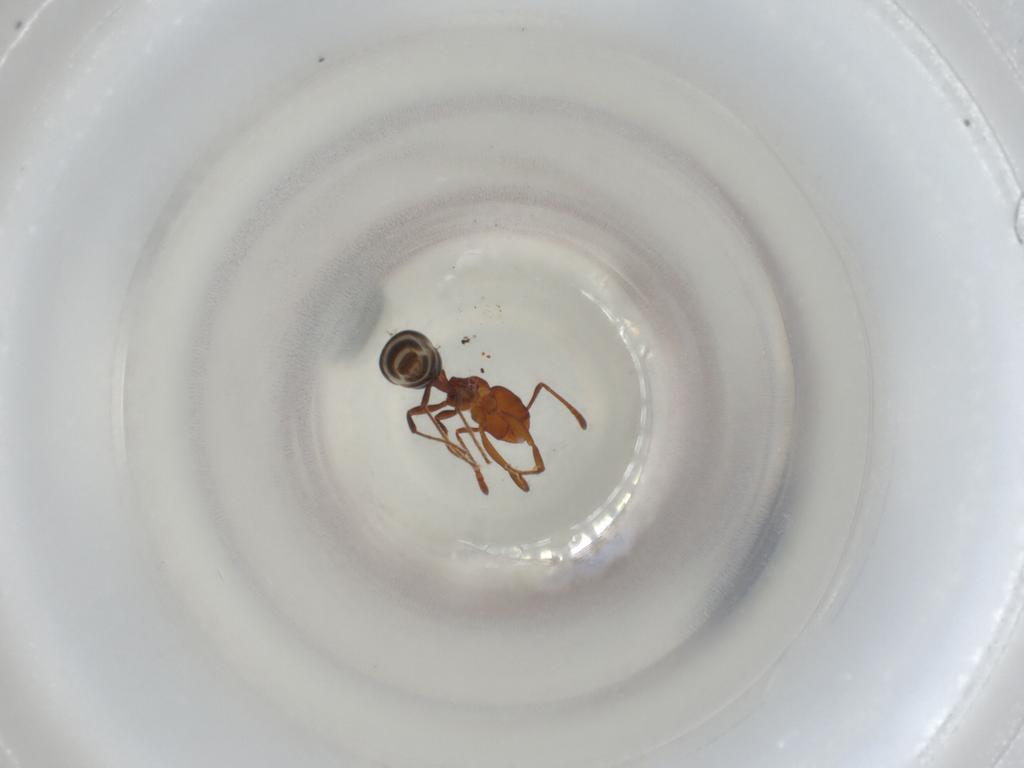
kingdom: Animalia
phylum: Arthropoda
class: Insecta
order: Hymenoptera
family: Formicidae
